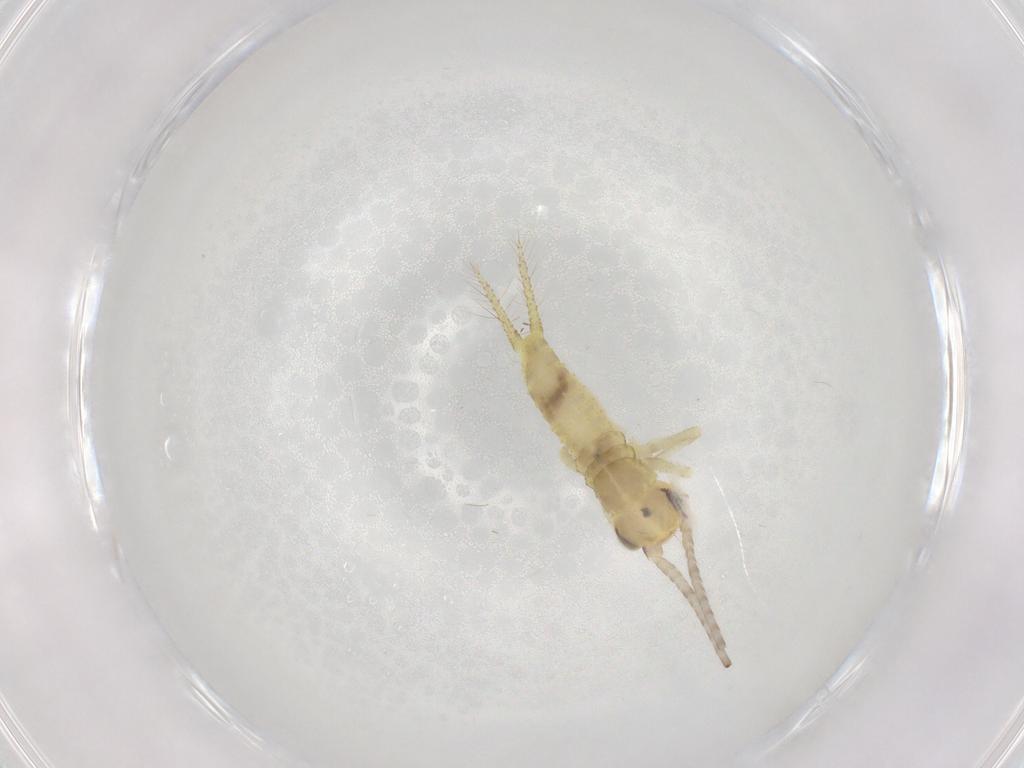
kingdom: Animalia
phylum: Arthropoda
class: Insecta
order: Orthoptera
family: Gryllidae
